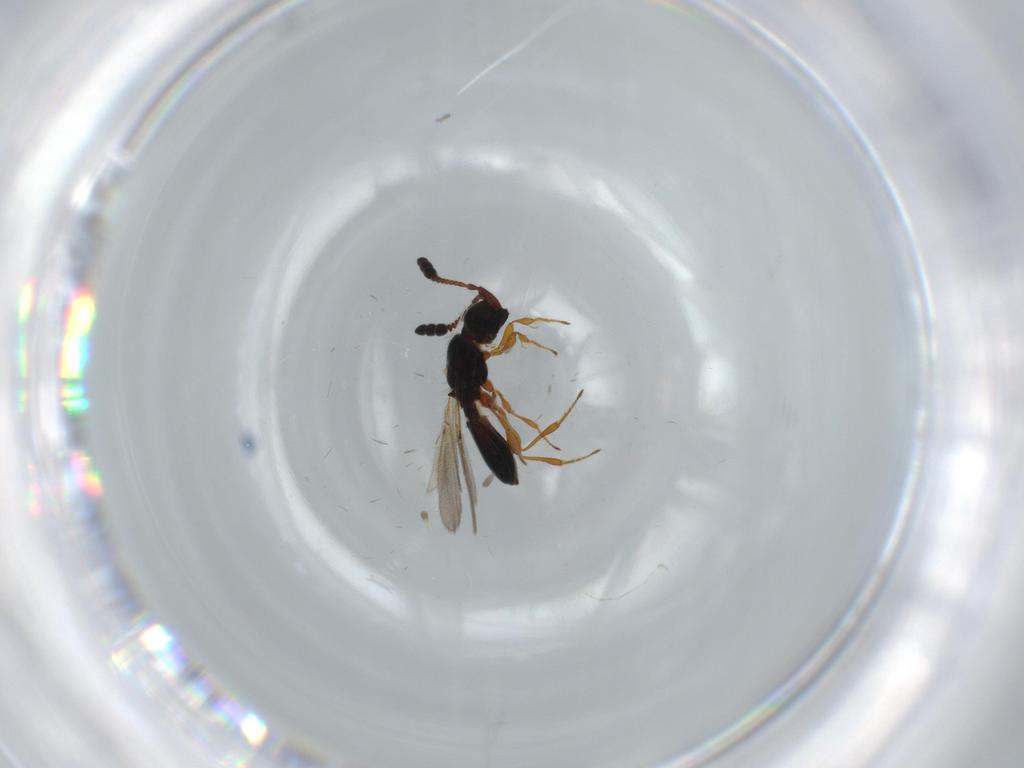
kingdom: Animalia
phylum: Arthropoda
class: Insecta
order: Hymenoptera
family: Diapriidae
